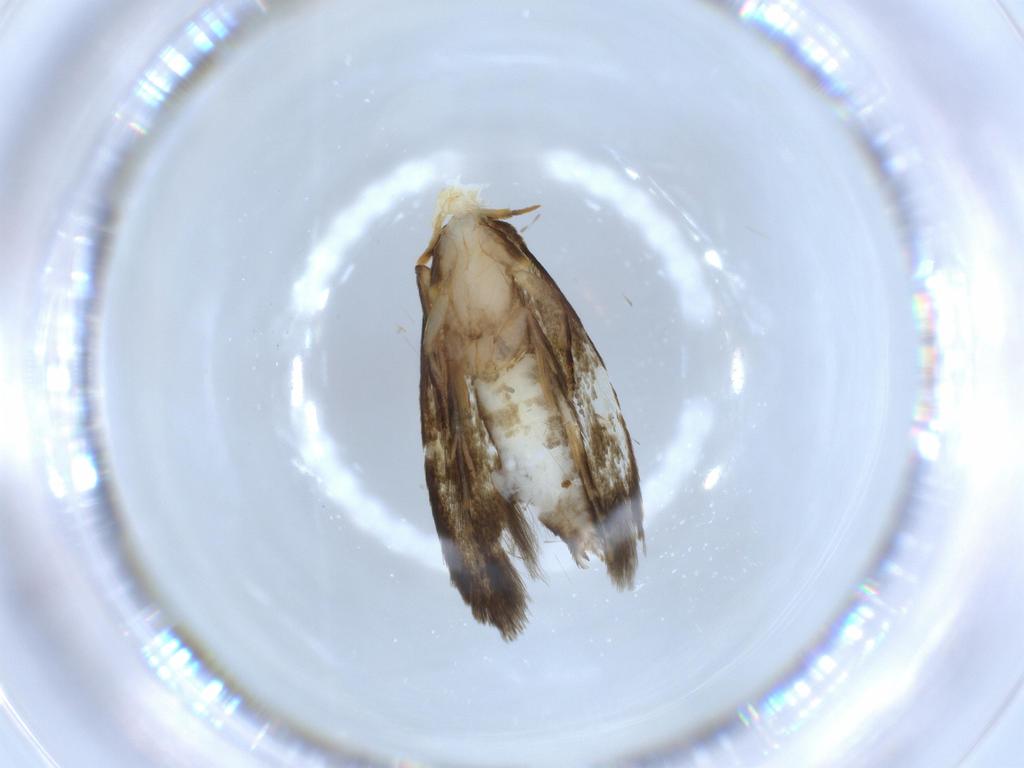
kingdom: Animalia
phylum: Arthropoda
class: Insecta
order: Lepidoptera
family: Tineidae
